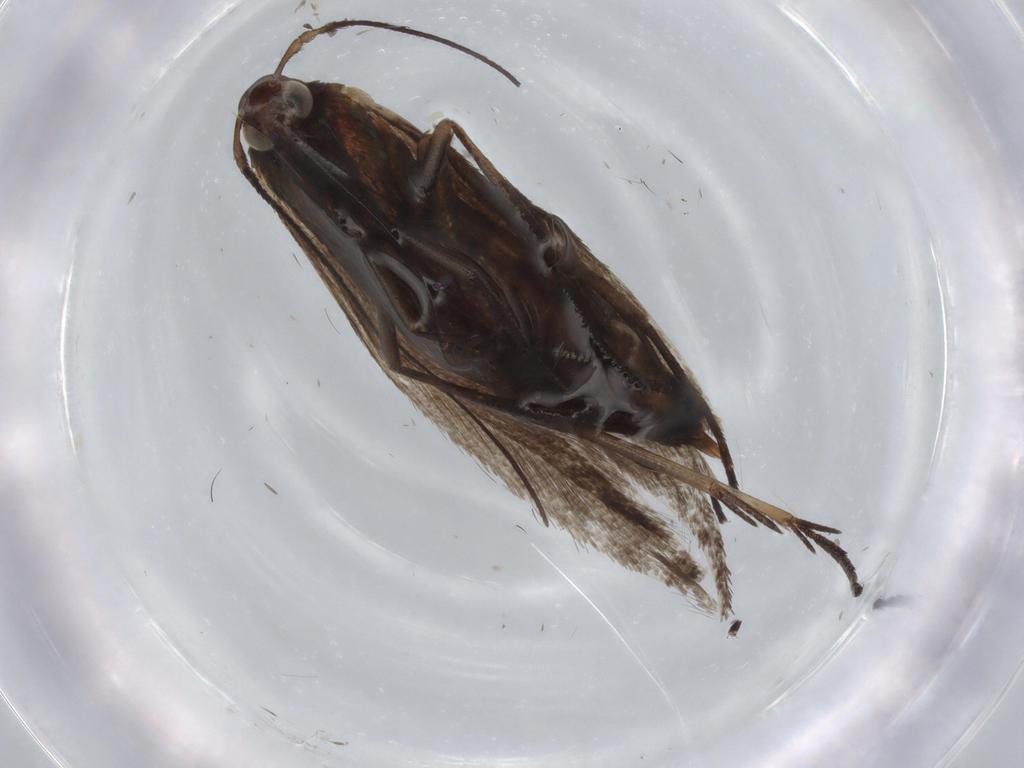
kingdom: Animalia
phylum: Arthropoda
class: Insecta
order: Lepidoptera
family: Coleophoridae
